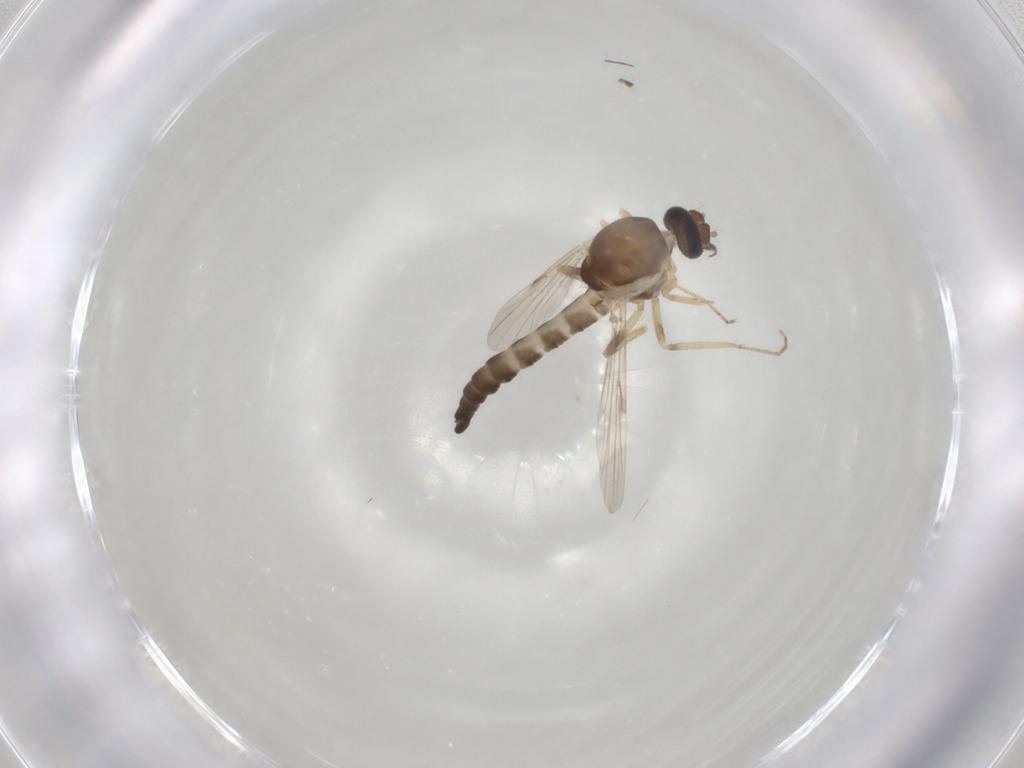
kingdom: Animalia
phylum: Arthropoda
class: Insecta
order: Diptera
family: Ceratopogonidae
